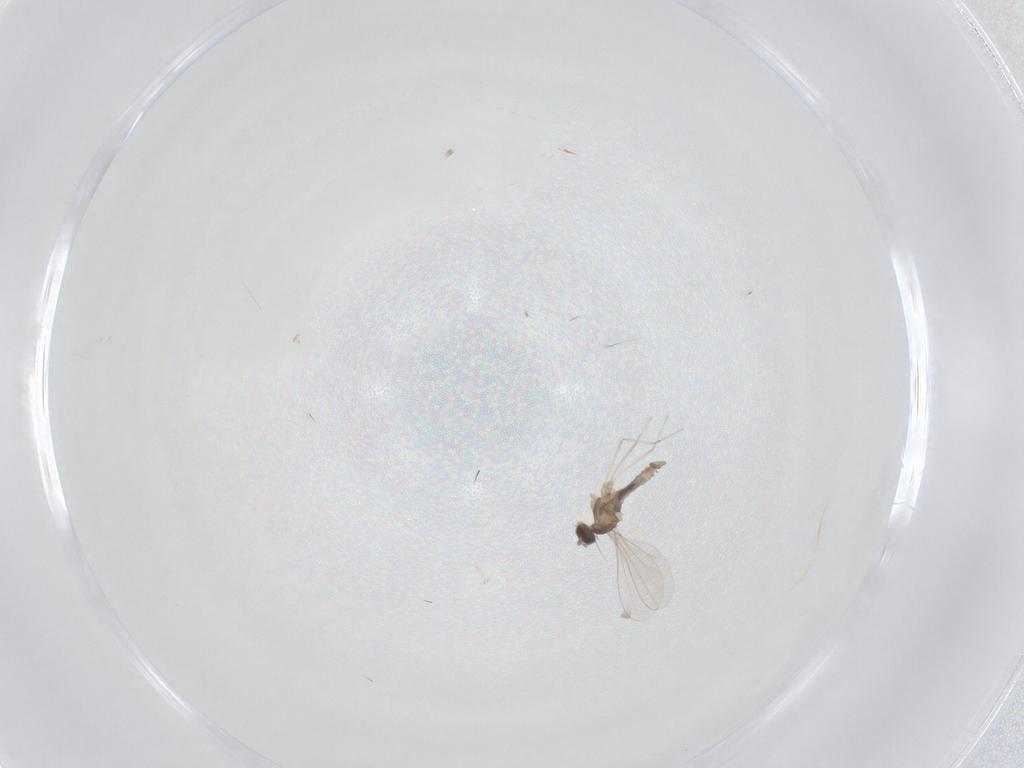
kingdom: Animalia
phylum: Arthropoda
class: Insecta
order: Diptera
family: Cecidomyiidae
